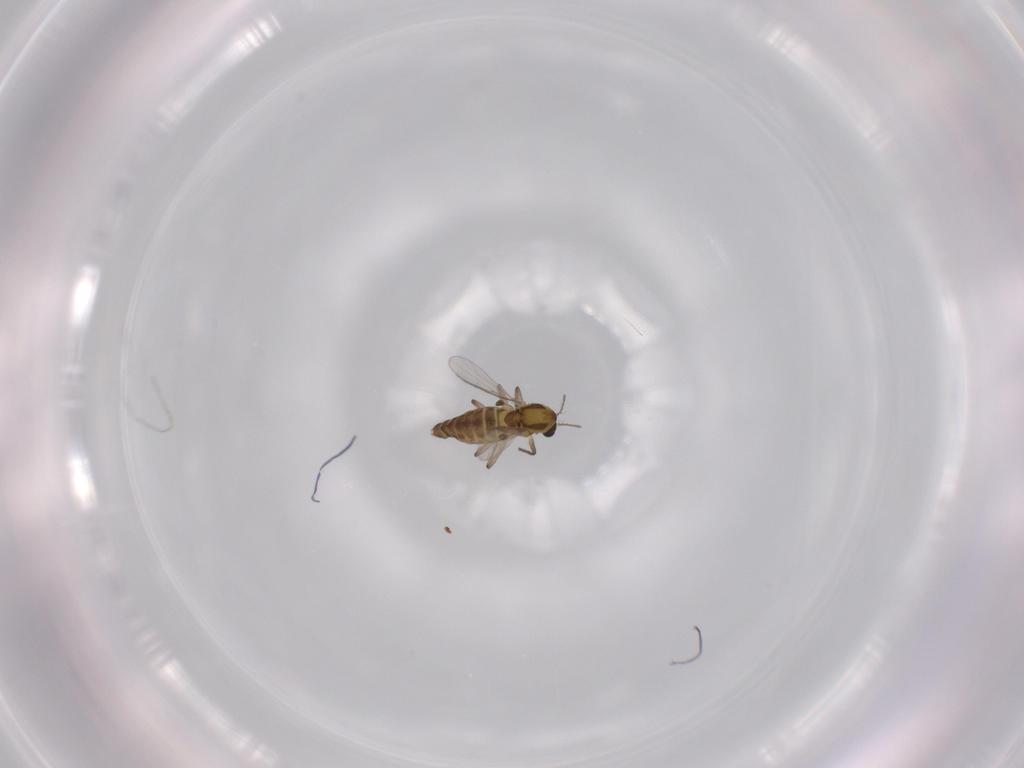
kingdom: Animalia
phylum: Arthropoda
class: Insecta
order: Diptera
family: Chironomidae
